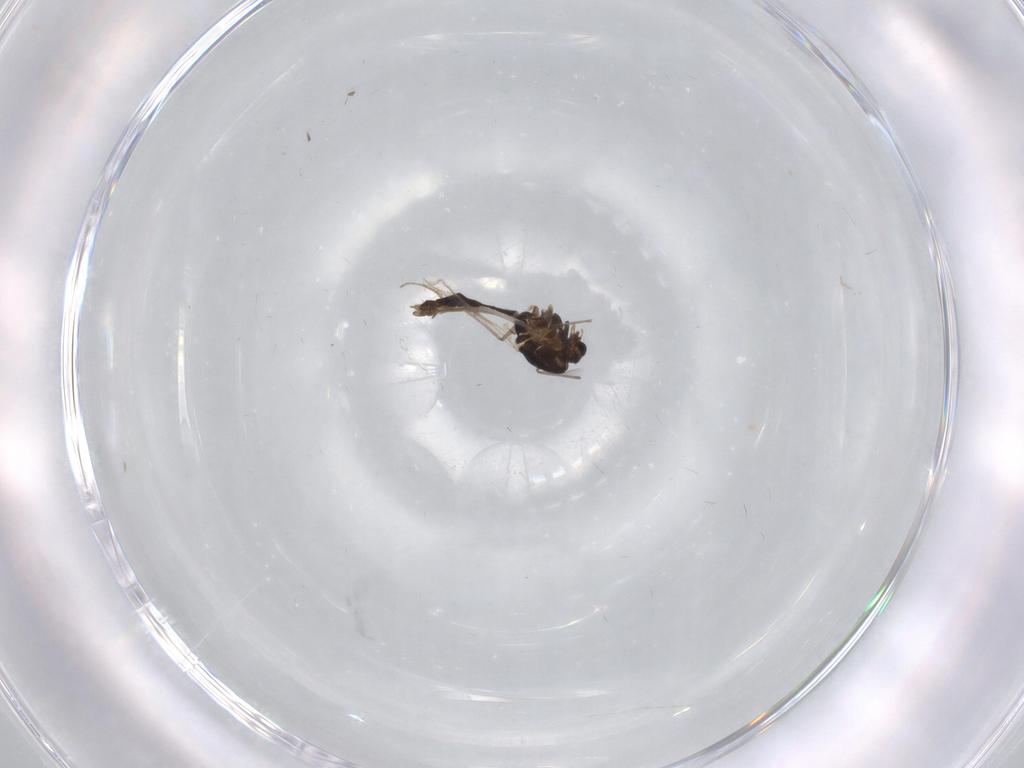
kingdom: Animalia
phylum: Arthropoda
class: Insecta
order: Diptera
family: Chironomidae
